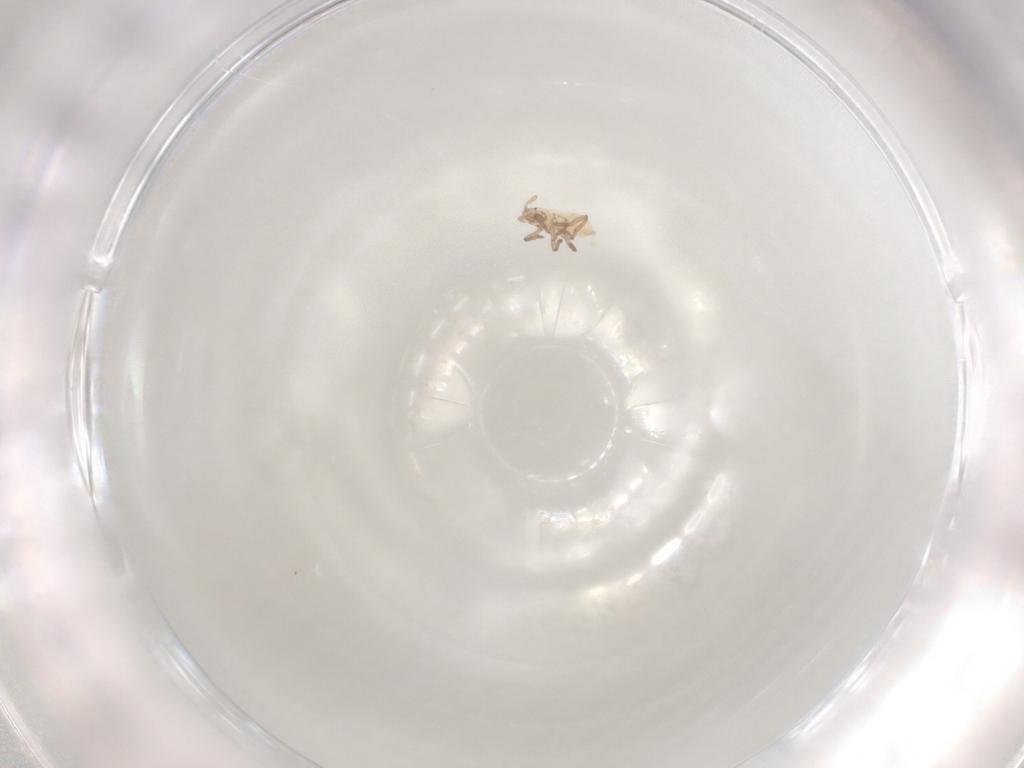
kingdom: Animalia
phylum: Arthropoda
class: Insecta
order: Hemiptera
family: Aphididae
